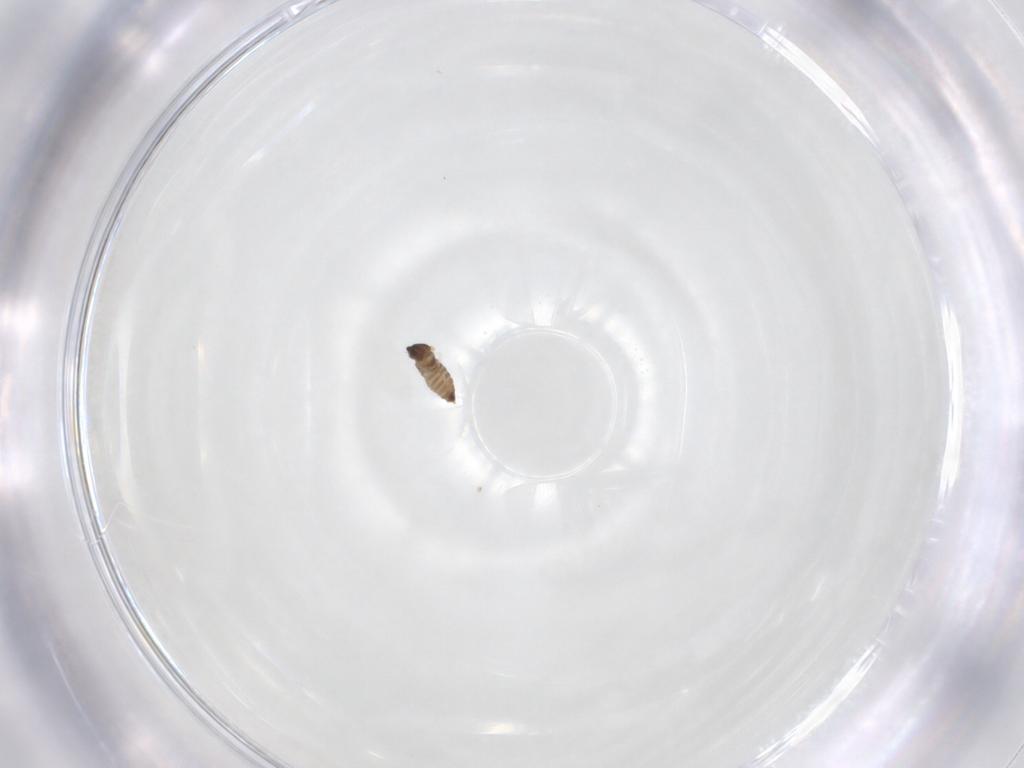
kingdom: Animalia
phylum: Arthropoda
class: Insecta
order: Diptera
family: Cecidomyiidae
